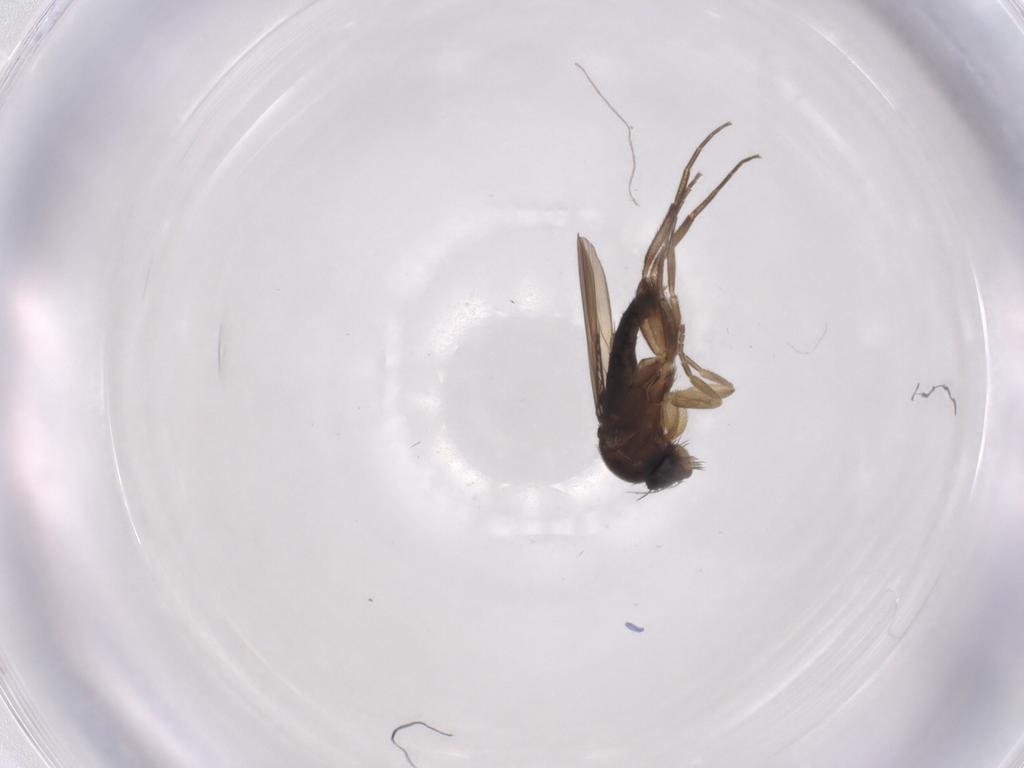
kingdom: Animalia
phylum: Arthropoda
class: Insecta
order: Diptera
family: Phoridae
